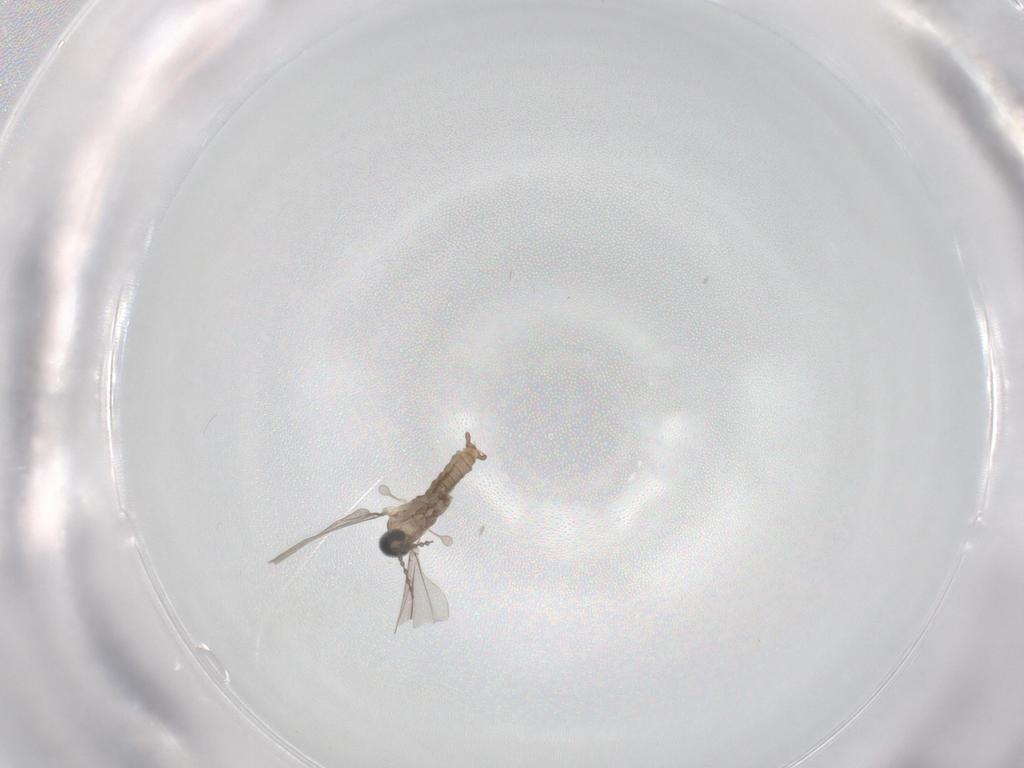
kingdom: Animalia
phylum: Arthropoda
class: Insecta
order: Diptera
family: Cecidomyiidae
